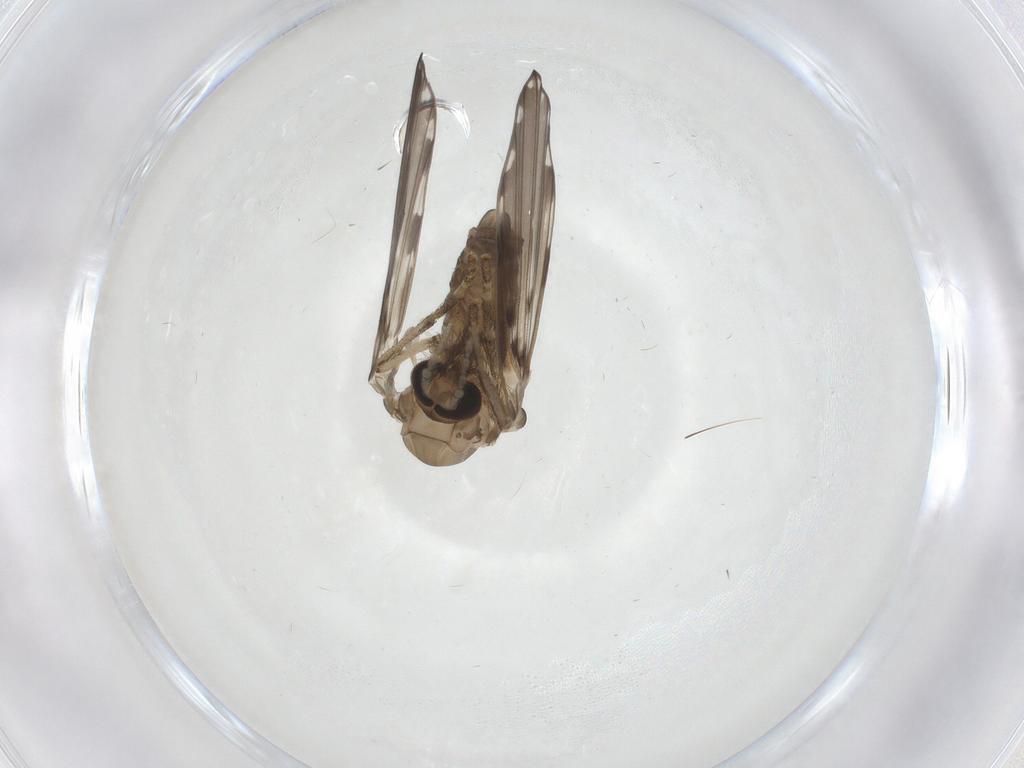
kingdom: Animalia
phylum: Arthropoda
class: Insecta
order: Diptera
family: Psychodidae
